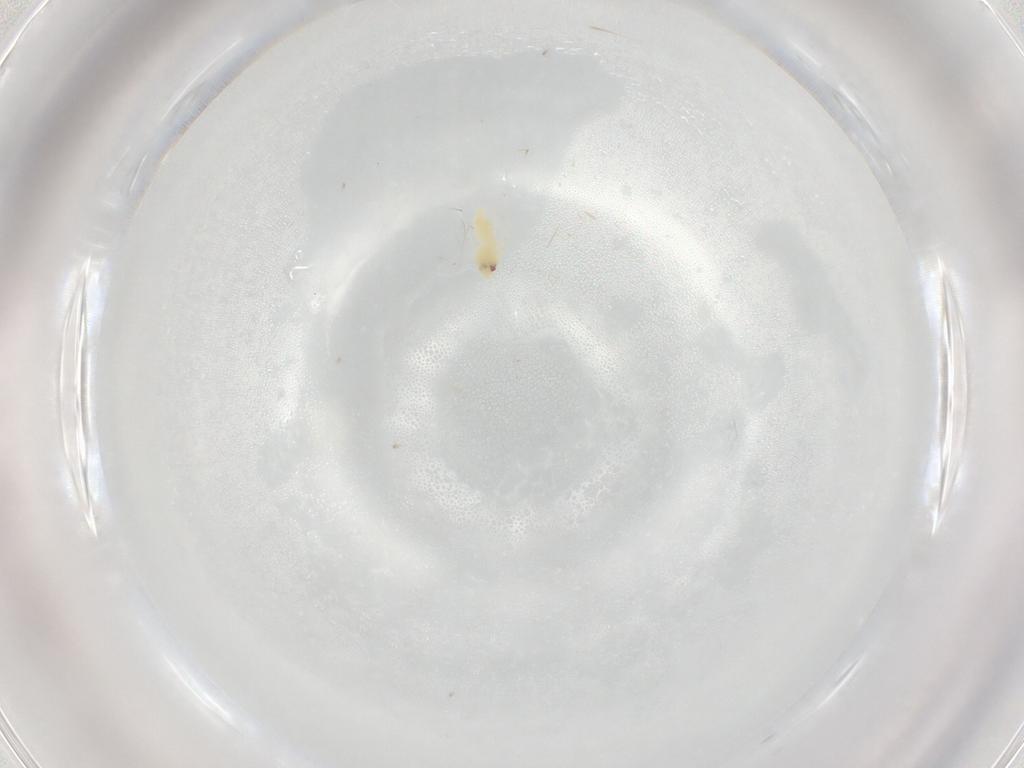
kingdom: Animalia
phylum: Arthropoda
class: Insecta
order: Hemiptera
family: Aleyrodidae
